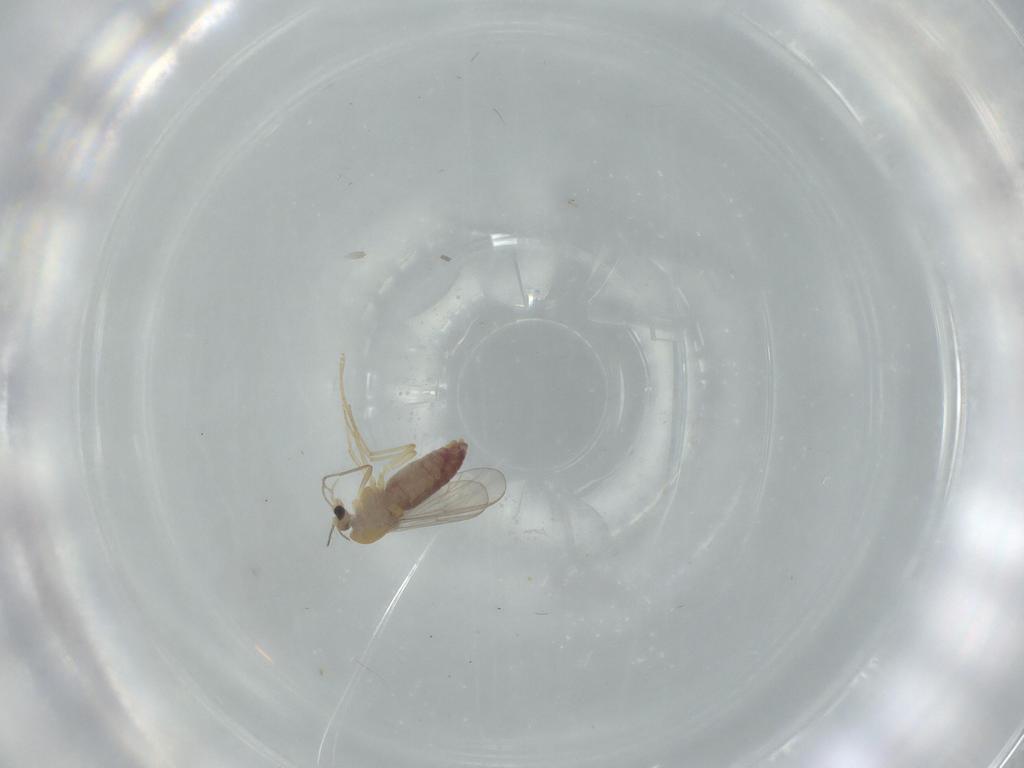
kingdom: Animalia
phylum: Arthropoda
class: Insecta
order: Diptera
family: Chironomidae
